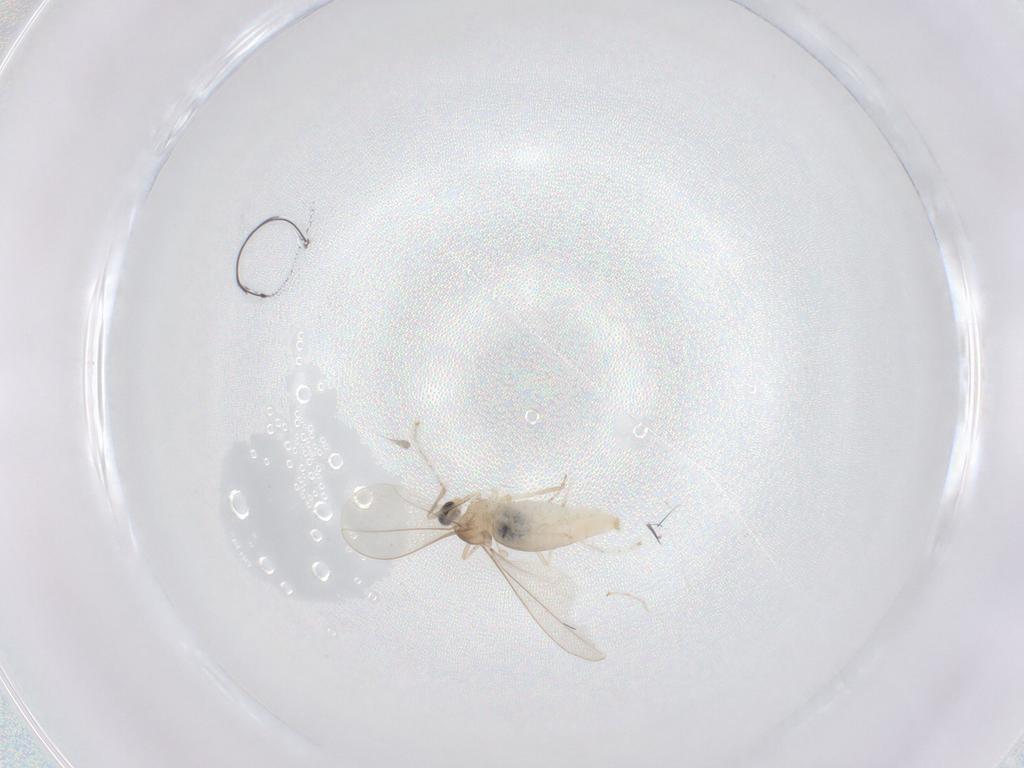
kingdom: Animalia
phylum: Arthropoda
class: Insecta
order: Diptera
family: Cecidomyiidae
